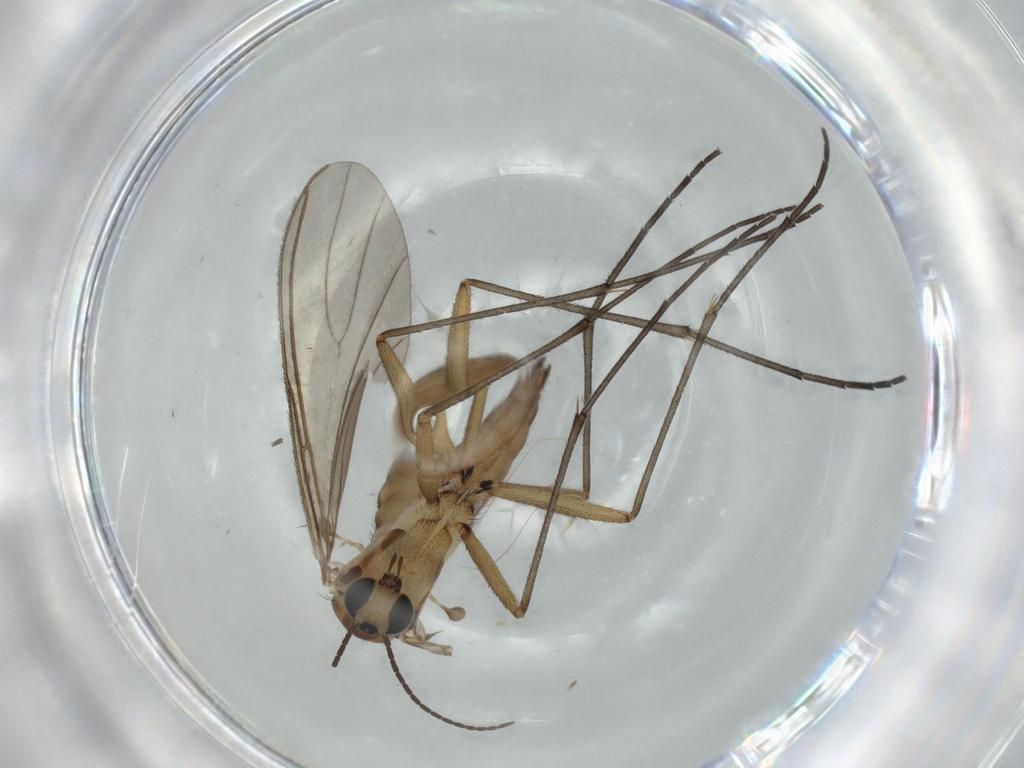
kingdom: Animalia
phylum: Arthropoda
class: Insecta
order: Diptera
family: Sciaridae
